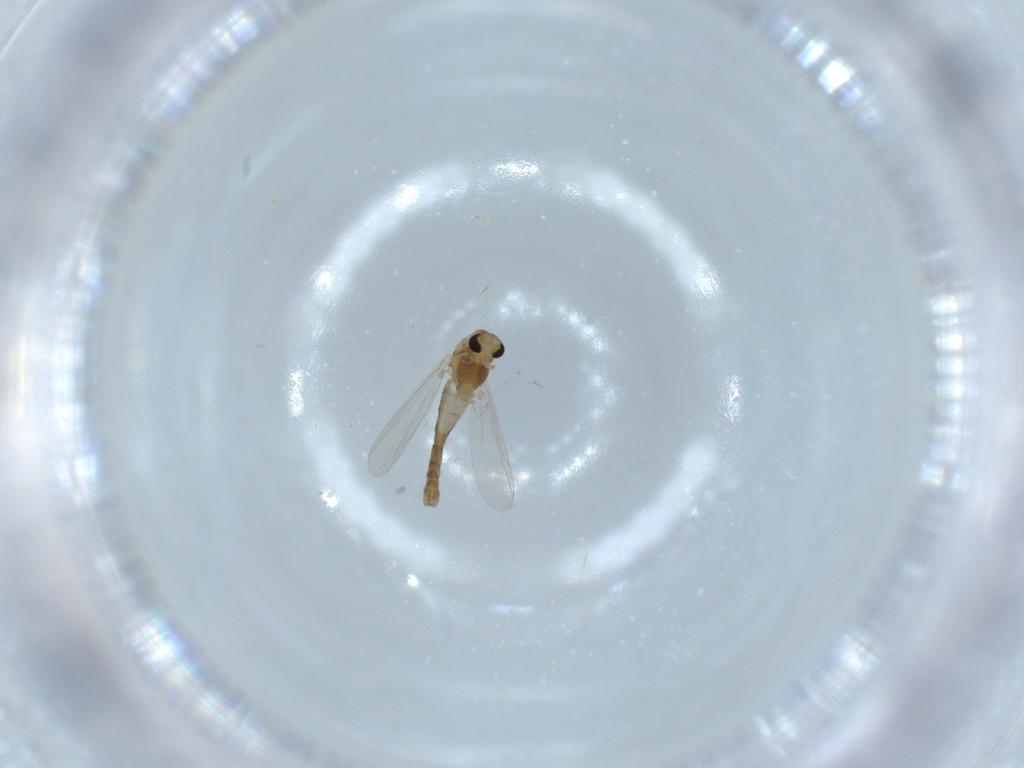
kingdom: Animalia
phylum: Arthropoda
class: Insecta
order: Diptera
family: Chironomidae
